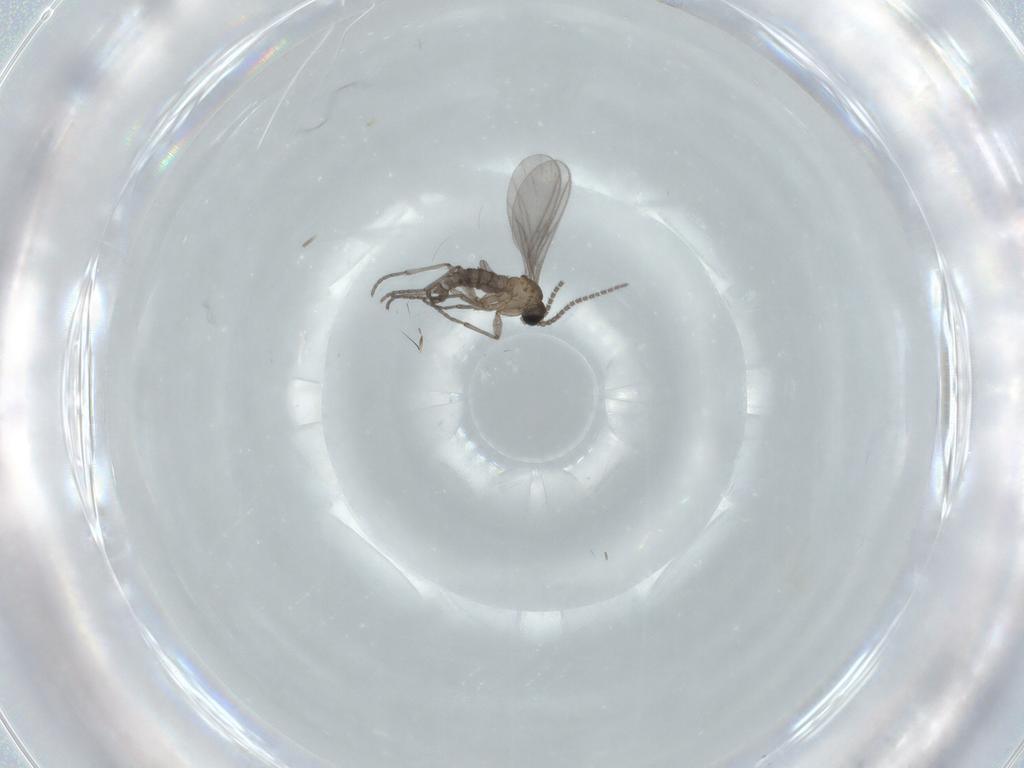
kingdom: Animalia
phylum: Arthropoda
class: Insecta
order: Diptera
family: Sciaridae
